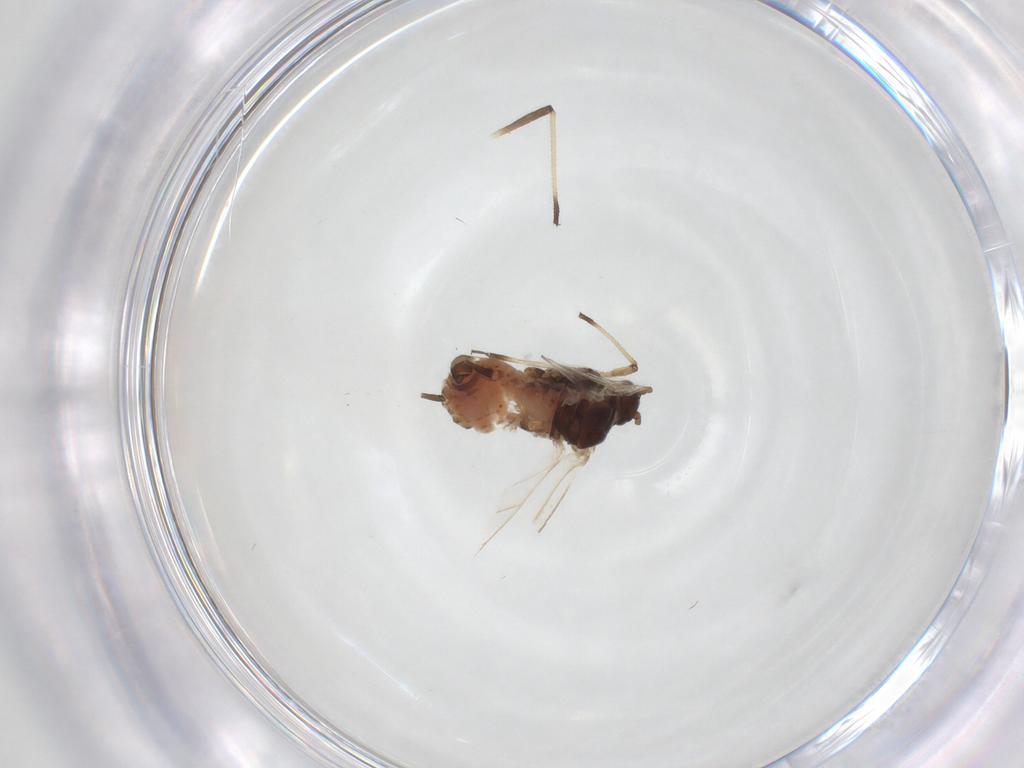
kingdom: Animalia
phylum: Arthropoda
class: Insecta
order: Hemiptera
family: Aphididae
